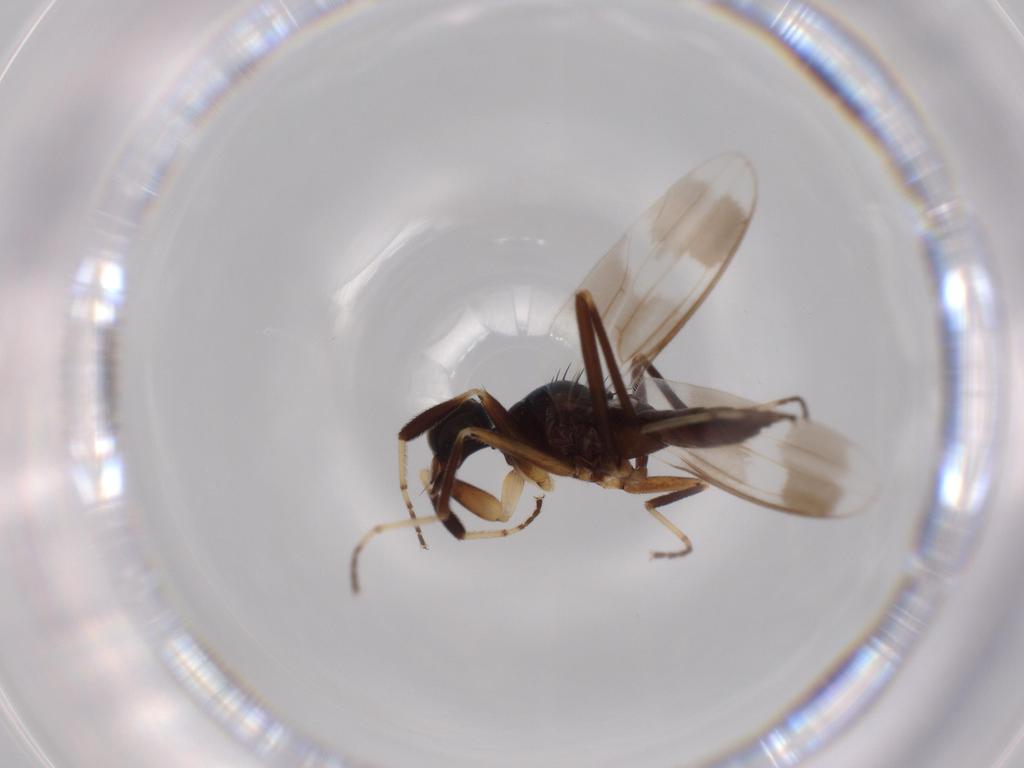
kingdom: Animalia
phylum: Arthropoda
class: Insecta
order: Diptera
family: Hybotidae
